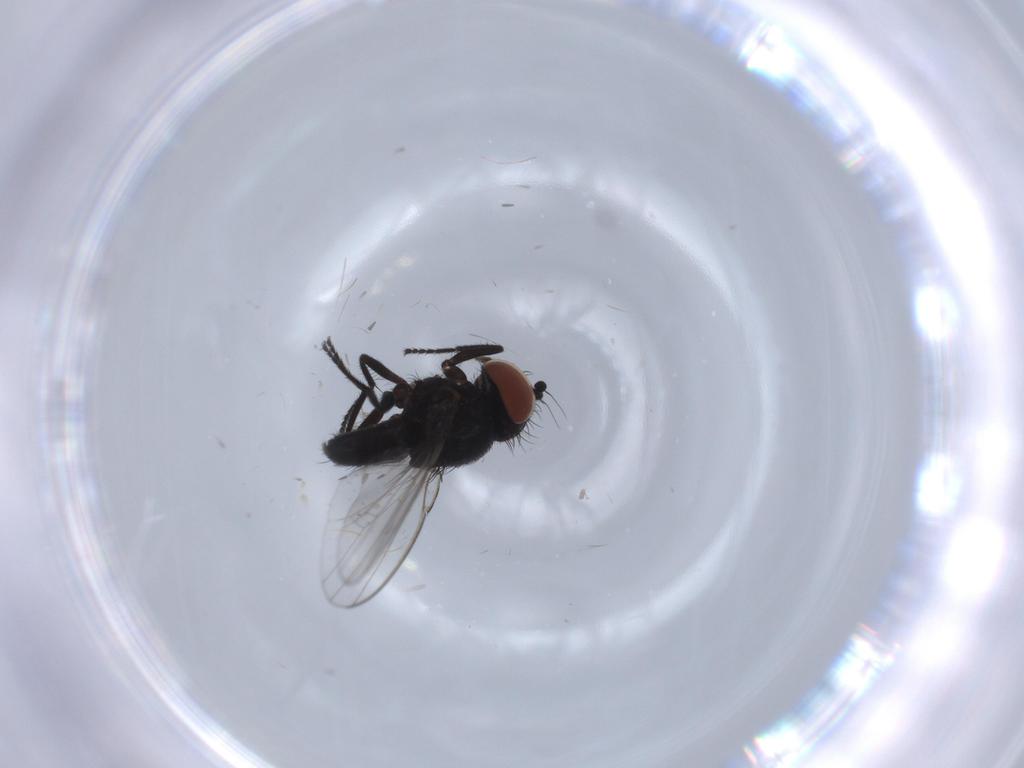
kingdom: Animalia
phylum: Arthropoda
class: Insecta
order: Diptera
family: Milichiidae
